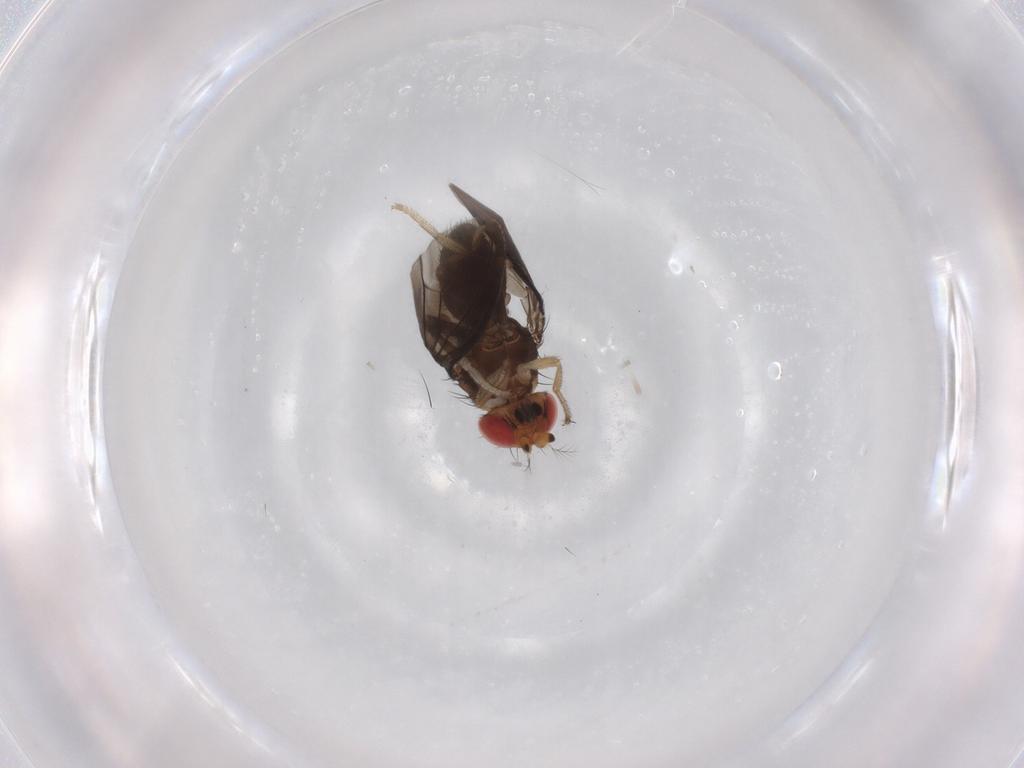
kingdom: Animalia
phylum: Arthropoda
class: Insecta
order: Diptera
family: Drosophilidae
